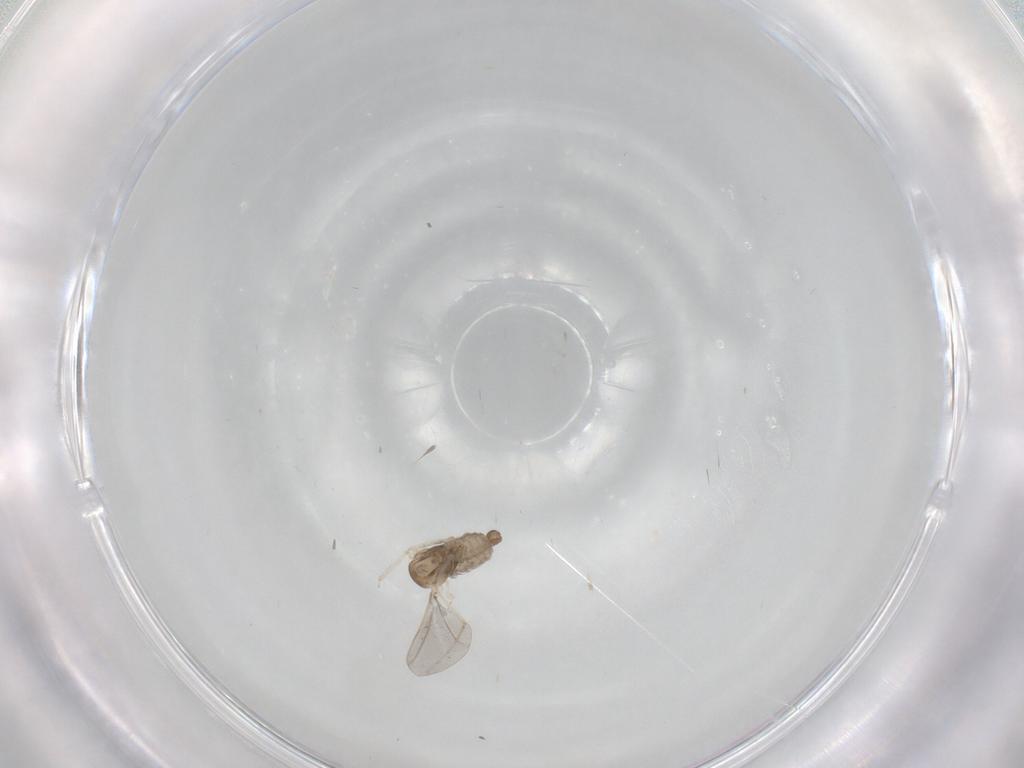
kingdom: Animalia
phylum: Arthropoda
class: Insecta
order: Diptera
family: Cecidomyiidae
